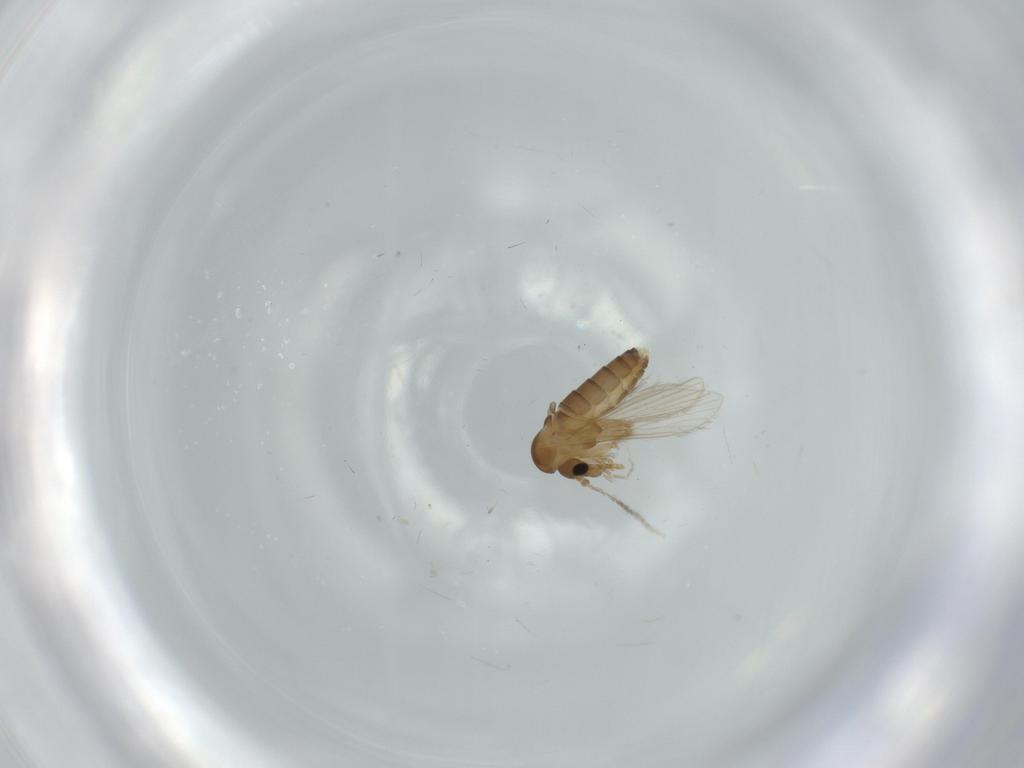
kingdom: Animalia
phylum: Arthropoda
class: Insecta
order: Diptera
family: Psychodidae
